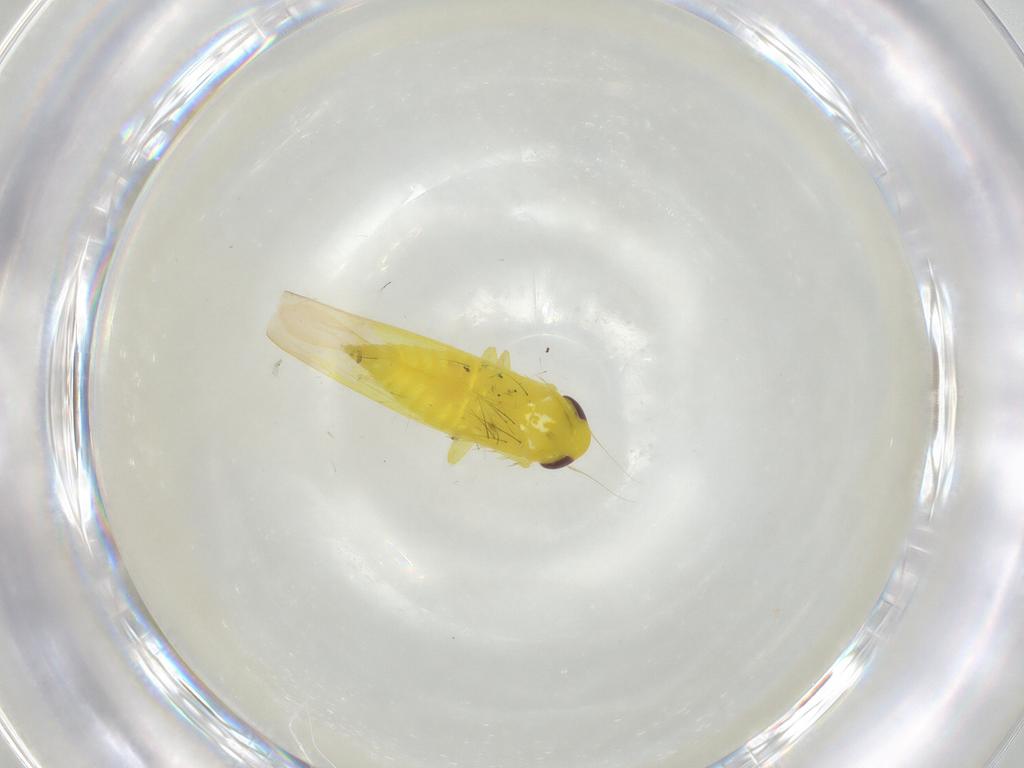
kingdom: Animalia
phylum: Arthropoda
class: Insecta
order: Hemiptera
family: Cicadellidae
